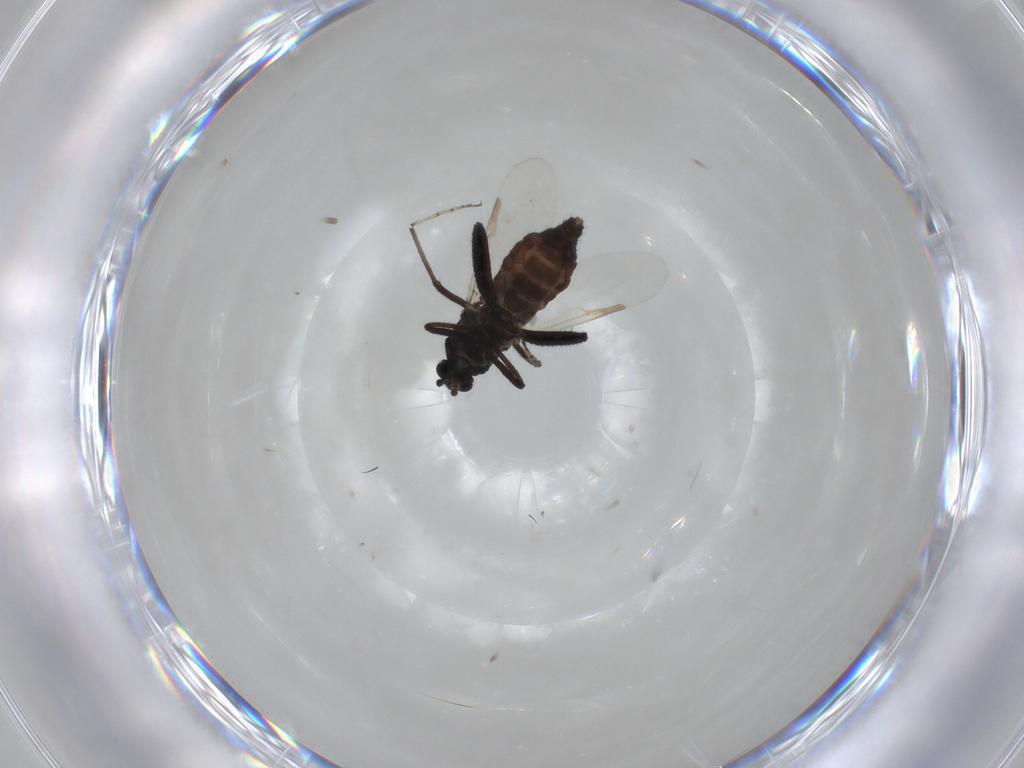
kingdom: Animalia
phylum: Arthropoda
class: Insecta
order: Diptera
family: Ceratopogonidae
